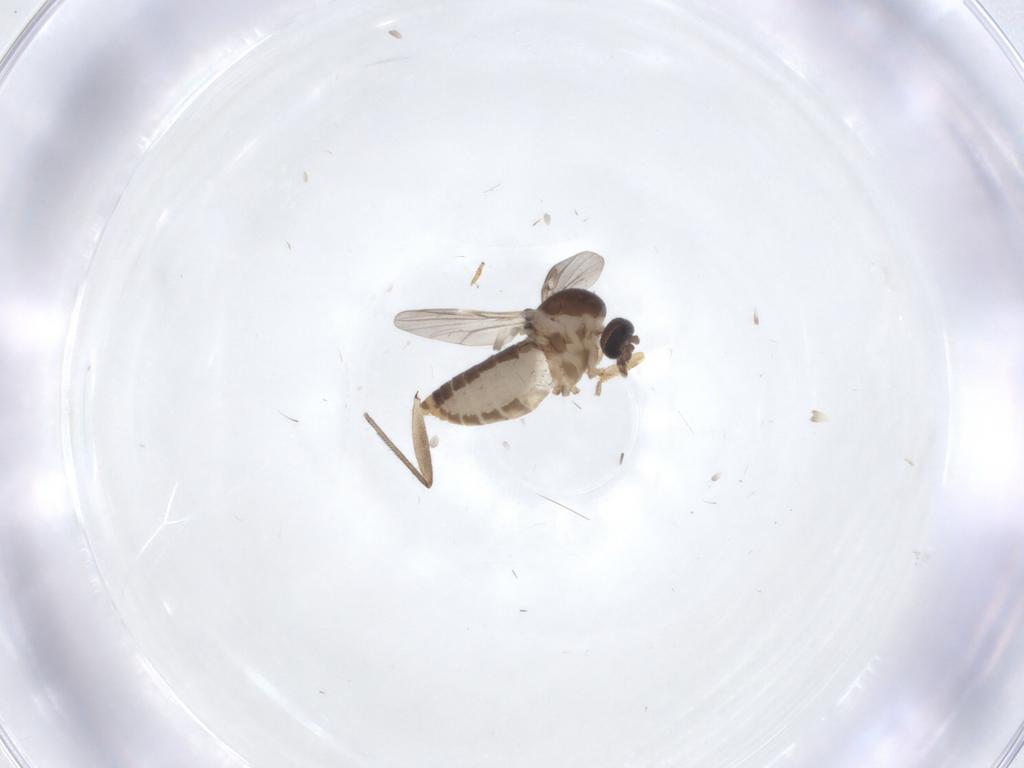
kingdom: Animalia
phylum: Arthropoda
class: Insecta
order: Diptera
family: Ceratopogonidae
